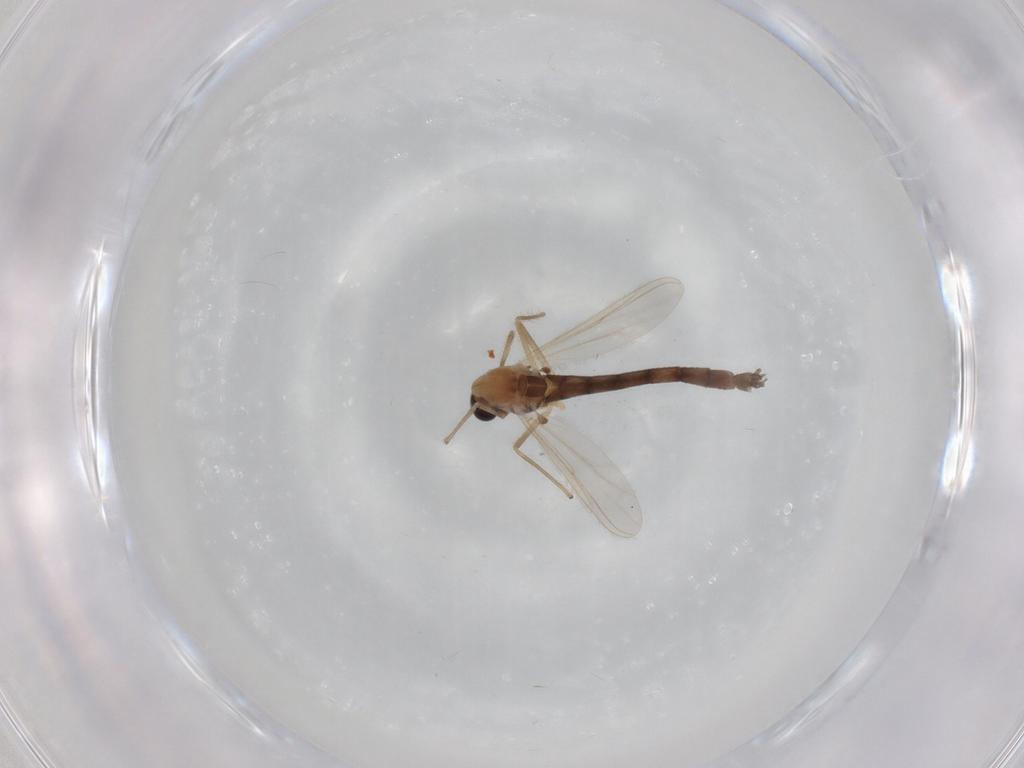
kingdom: Animalia
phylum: Arthropoda
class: Insecta
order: Diptera
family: Chironomidae
